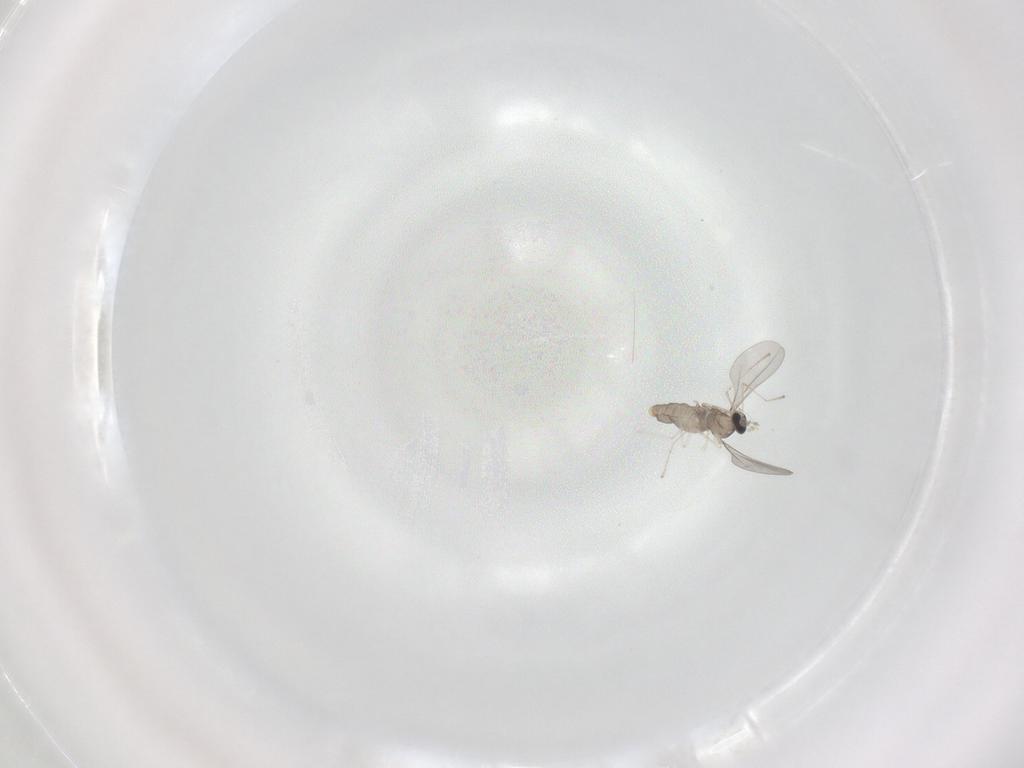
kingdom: Animalia
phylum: Arthropoda
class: Insecta
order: Diptera
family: Cecidomyiidae
